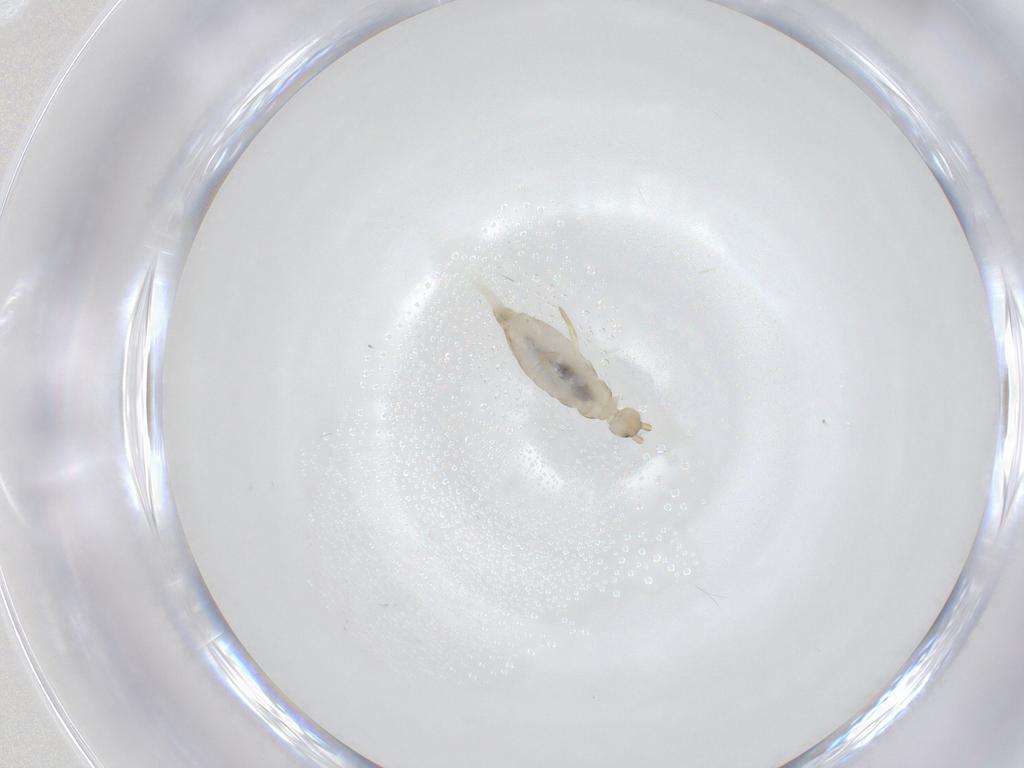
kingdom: Animalia
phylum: Arthropoda
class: Collembola
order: Entomobryomorpha
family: Entomobryidae
